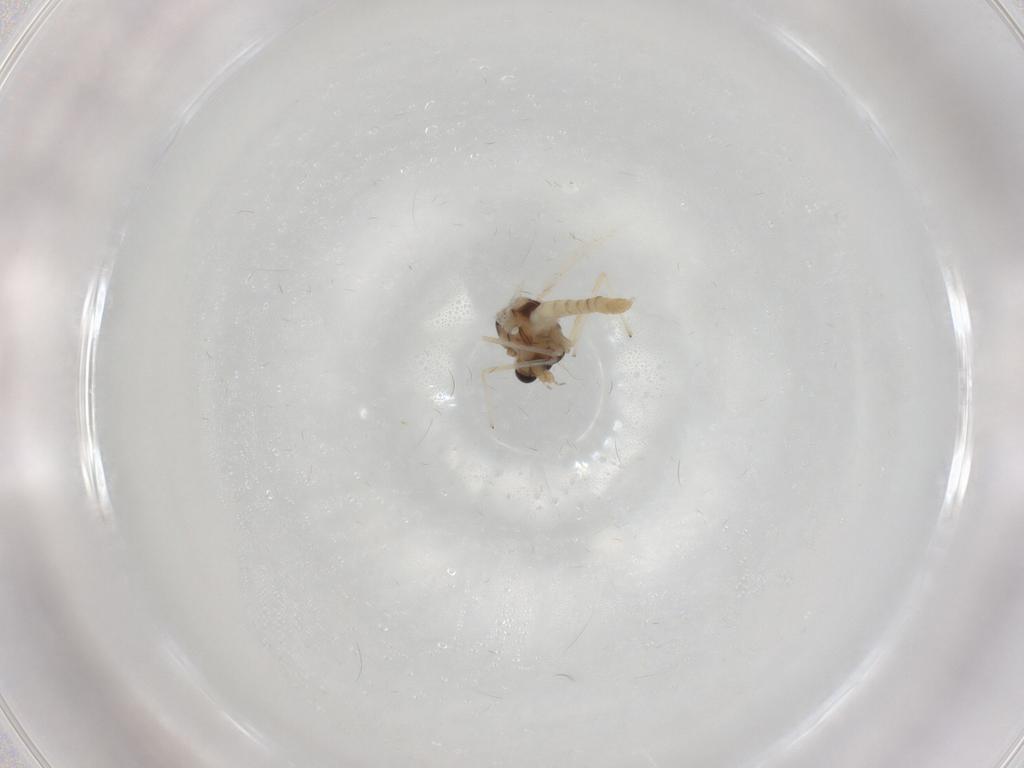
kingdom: Animalia
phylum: Arthropoda
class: Insecta
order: Diptera
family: Chironomidae
